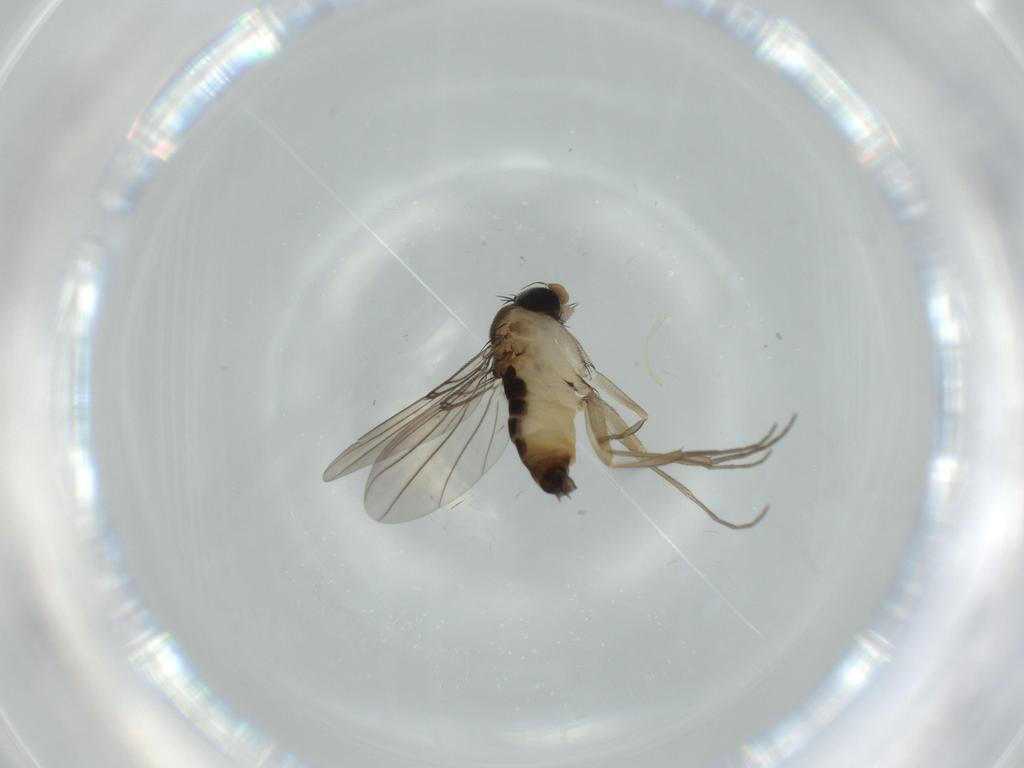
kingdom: Animalia
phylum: Arthropoda
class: Insecta
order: Diptera
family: Phoridae
